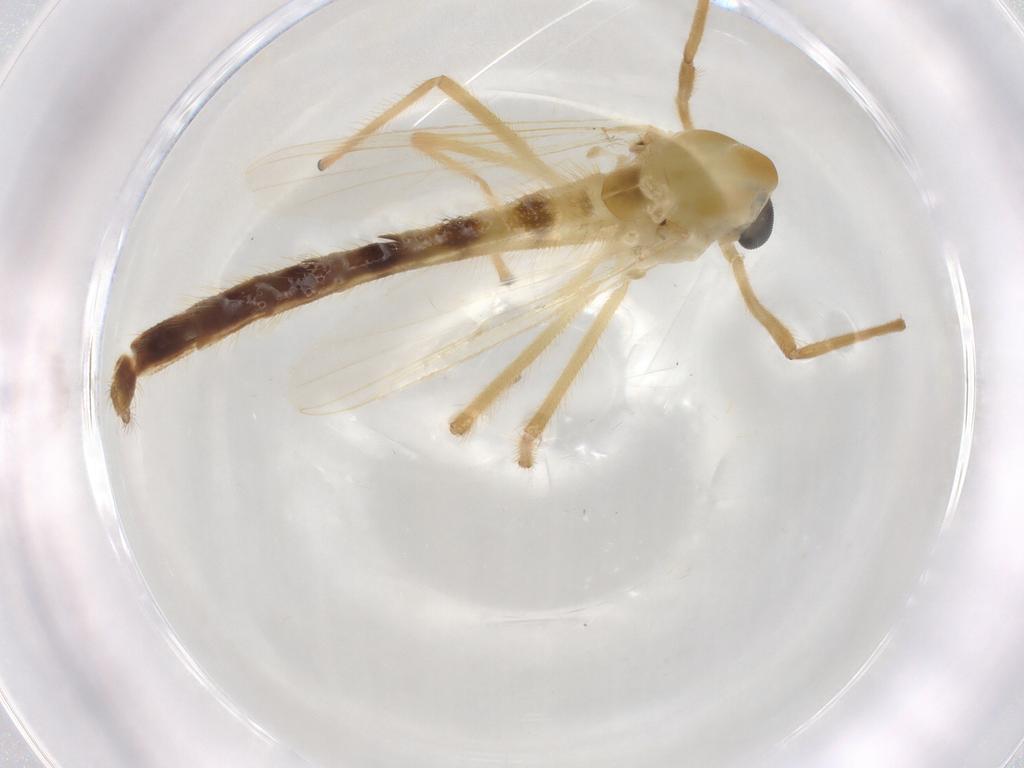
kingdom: Animalia
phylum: Arthropoda
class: Insecta
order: Diptera
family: Cecidomyiidae
